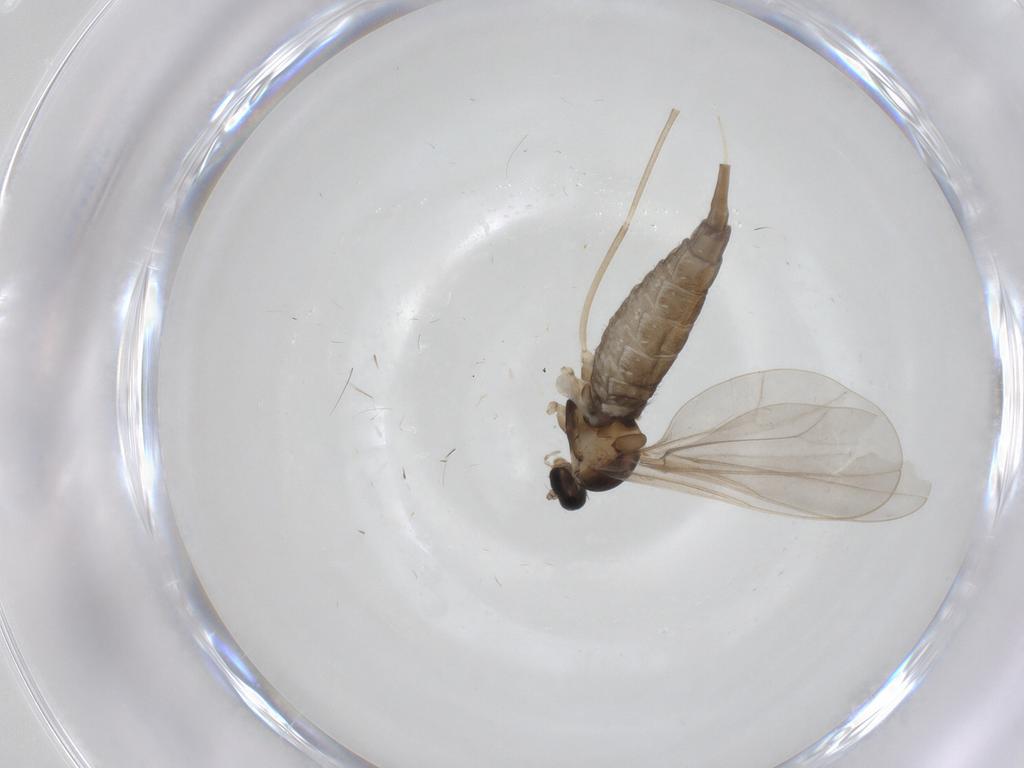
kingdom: Animalia
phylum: Arthropoda
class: Insecta
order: Diptera
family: Cecidomyiidae
